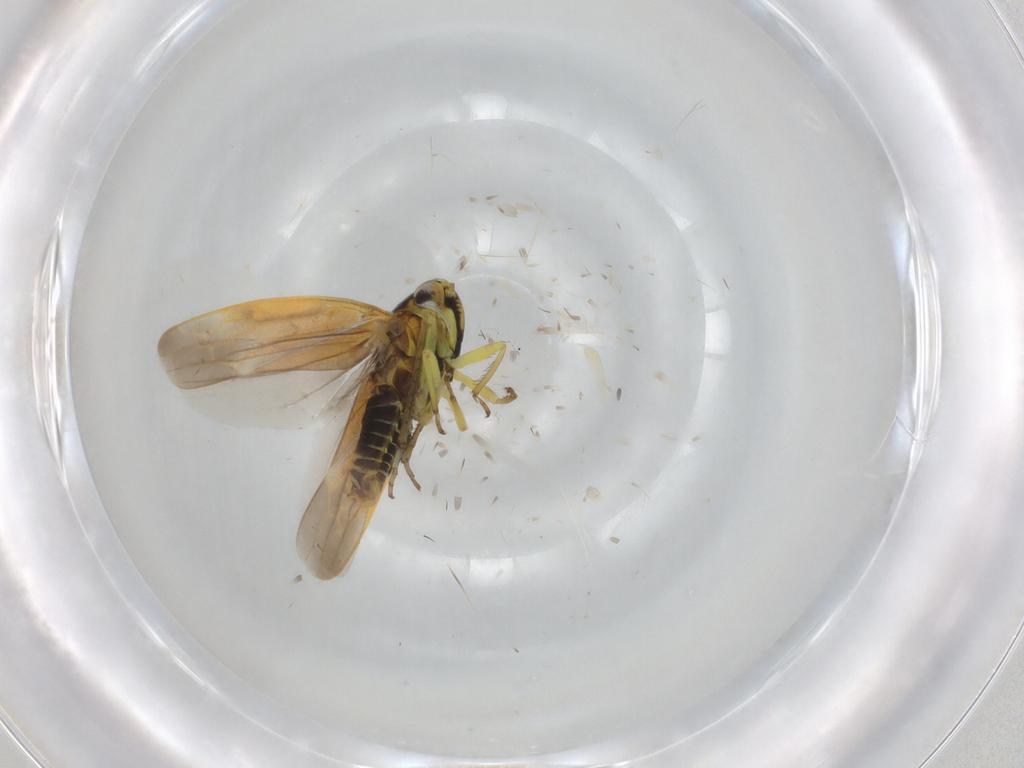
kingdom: Animalia
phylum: Arthropoda
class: Insecta
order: Hemiptera
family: Cicadellidae
